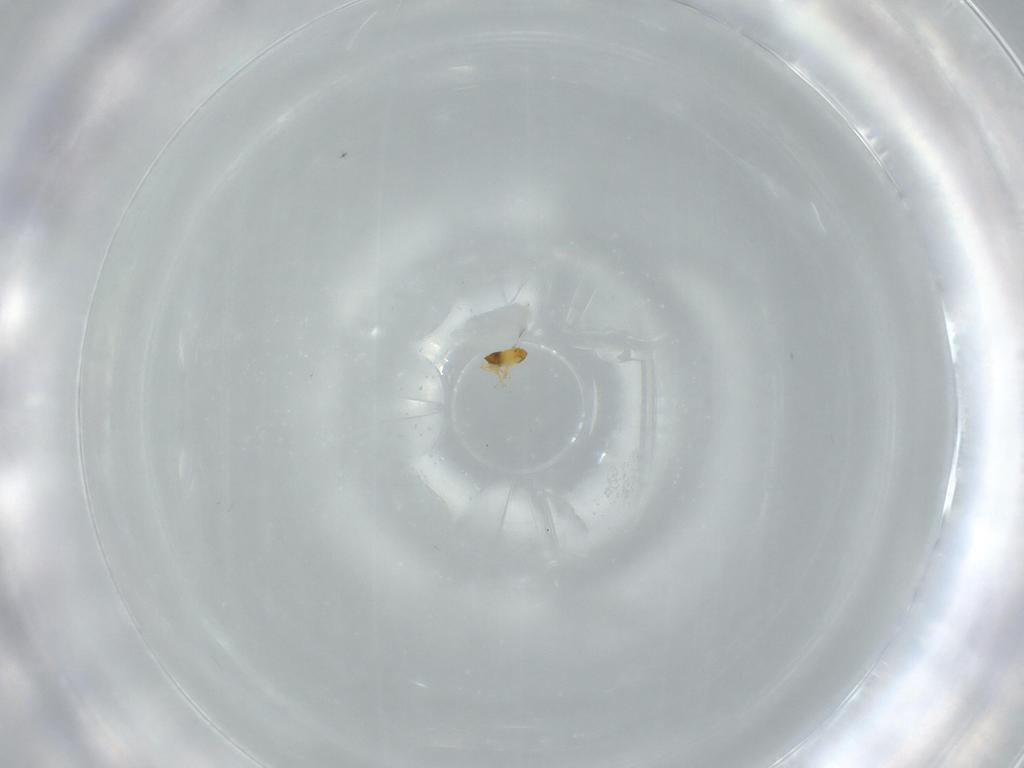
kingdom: Animalia
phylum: Arthropoda
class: Insecta
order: Hymenoptera
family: Trichogrammatidae
